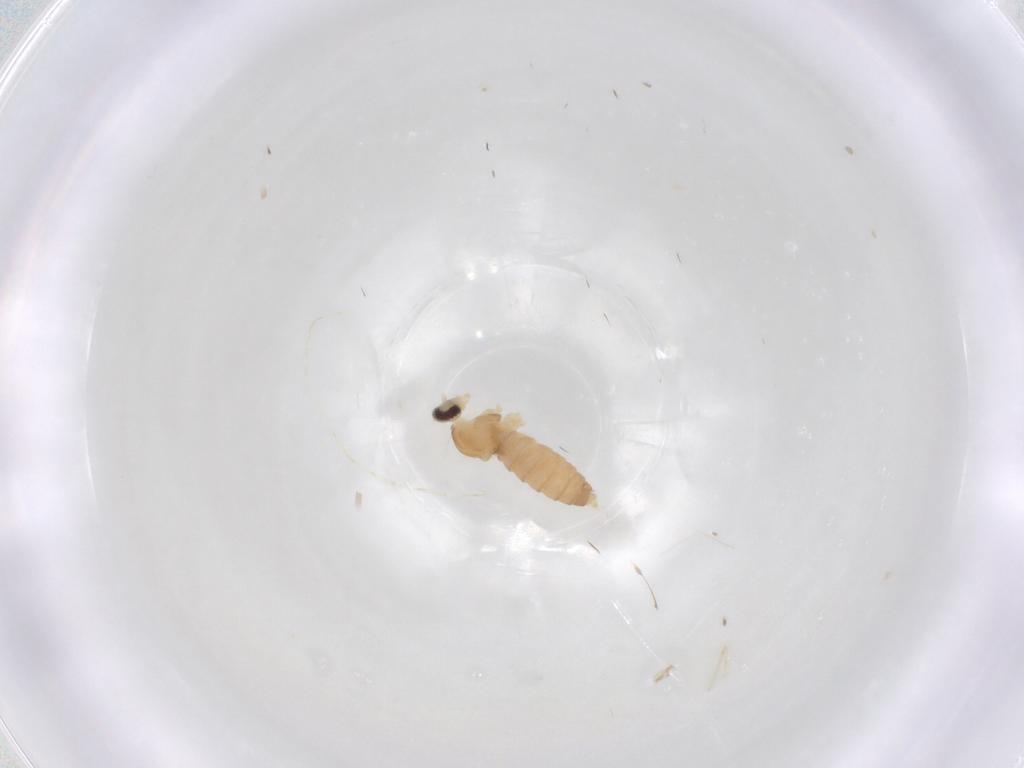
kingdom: Animalia
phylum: Arthropoda
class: Insecta
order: Diptera
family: Cecidomyiidae
